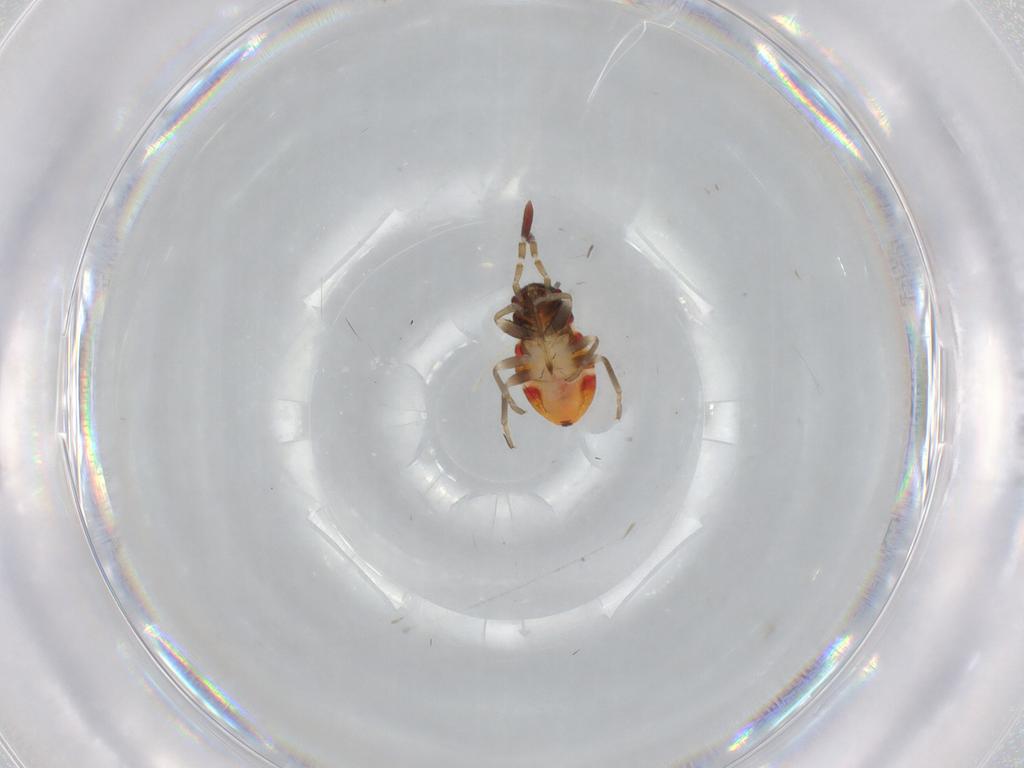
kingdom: Animalia
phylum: Arthropoda
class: Insecta
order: Hemiptera
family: Rhyparochromidae
